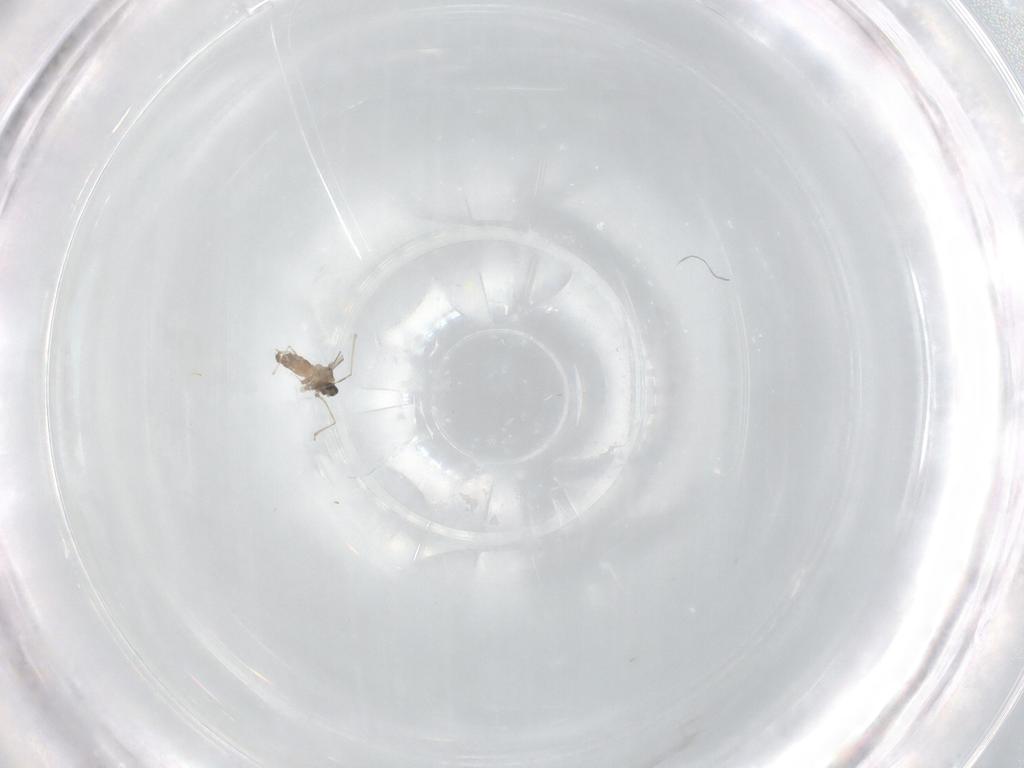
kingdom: Animalia
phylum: Arthropoda
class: Insecta
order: Diptera
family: Cecidomyiidae
